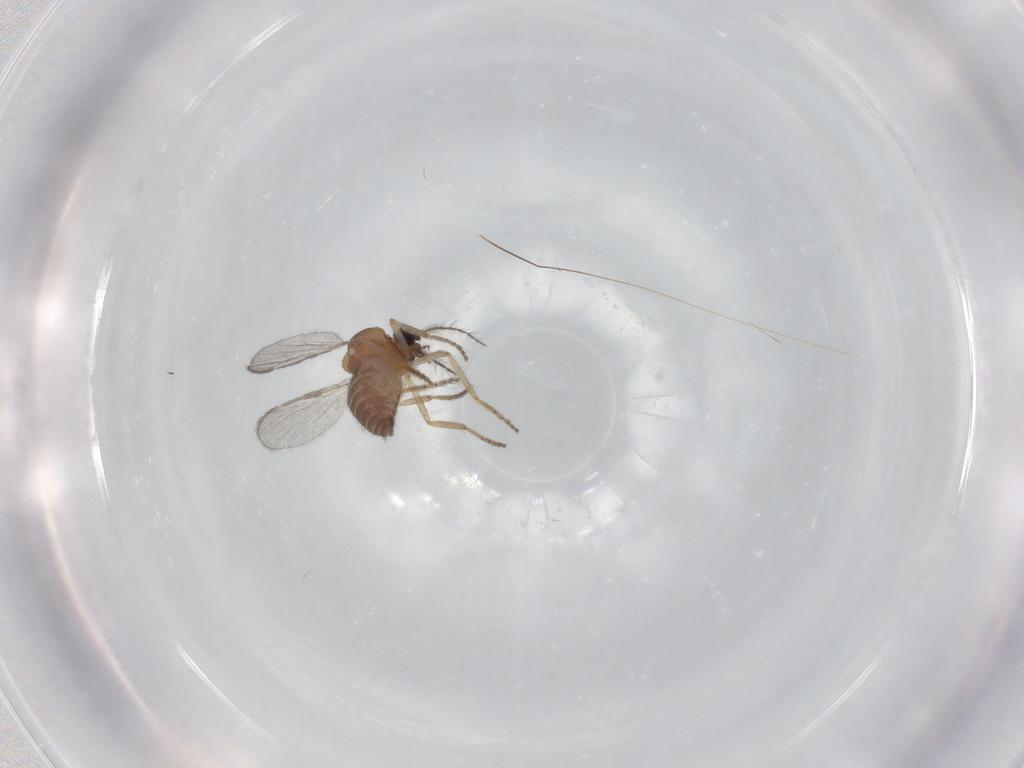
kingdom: Animalia
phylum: Arthropoda
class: Insecta
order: Diptera
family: Ceratopogonidae
